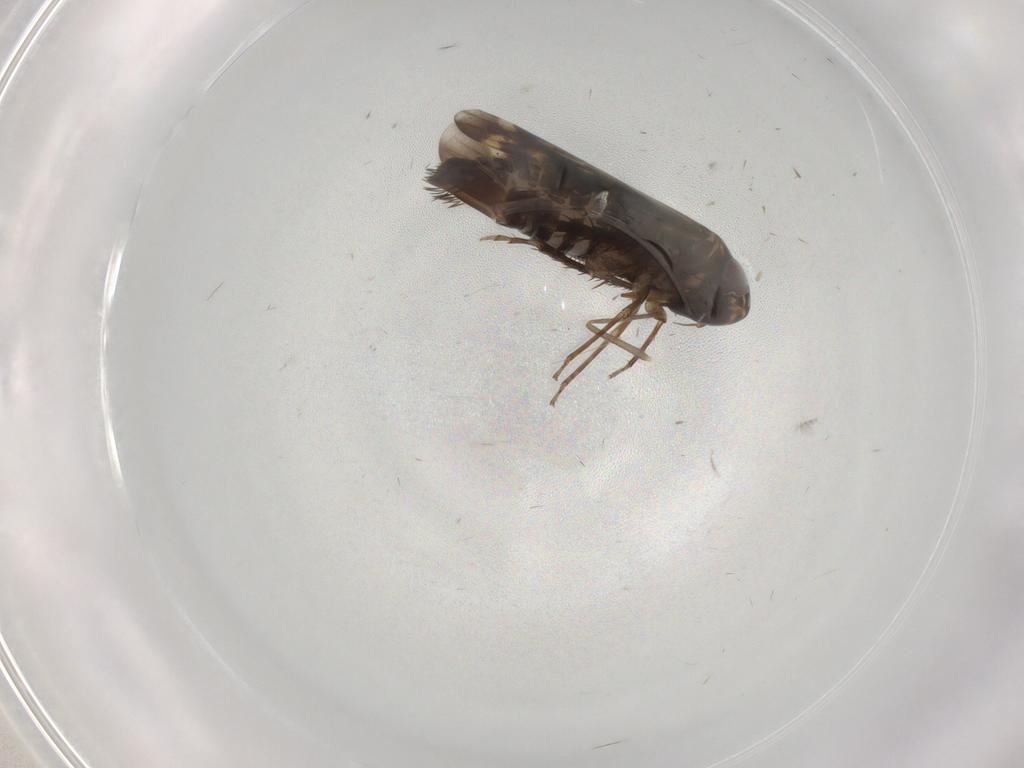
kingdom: Animalia
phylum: Arthropoda
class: Insecta
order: Hemiptera
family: Cicadellidae
